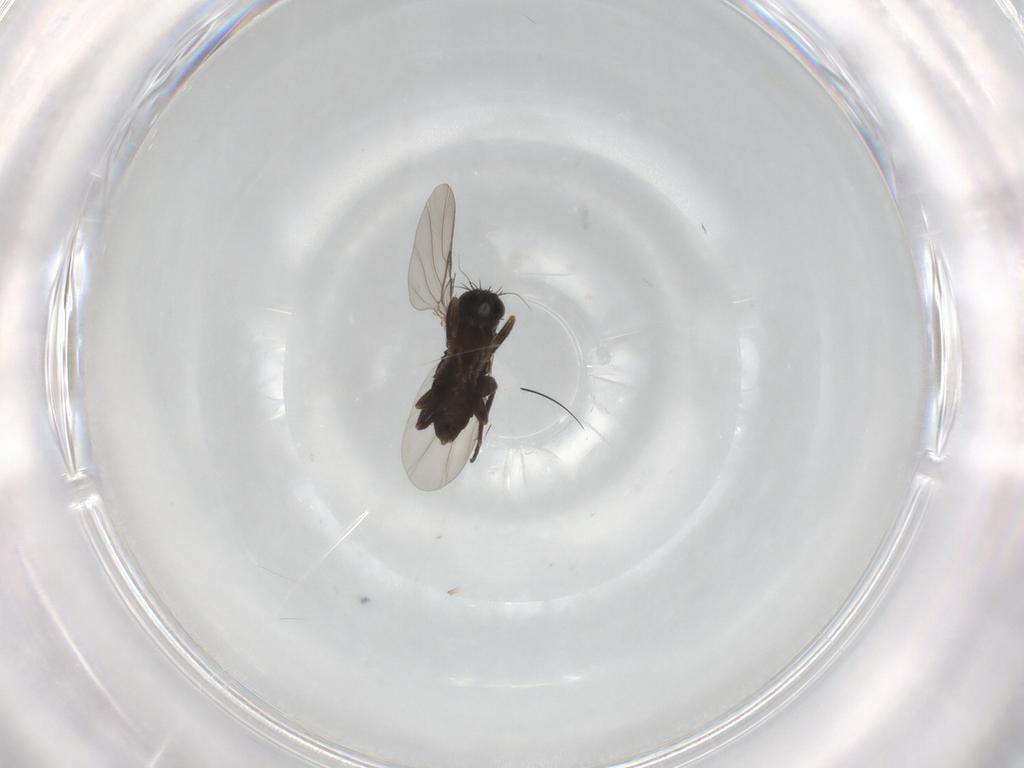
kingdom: Animalia
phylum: Arthropoda
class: Insecta
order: Diptera
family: Phoridae
